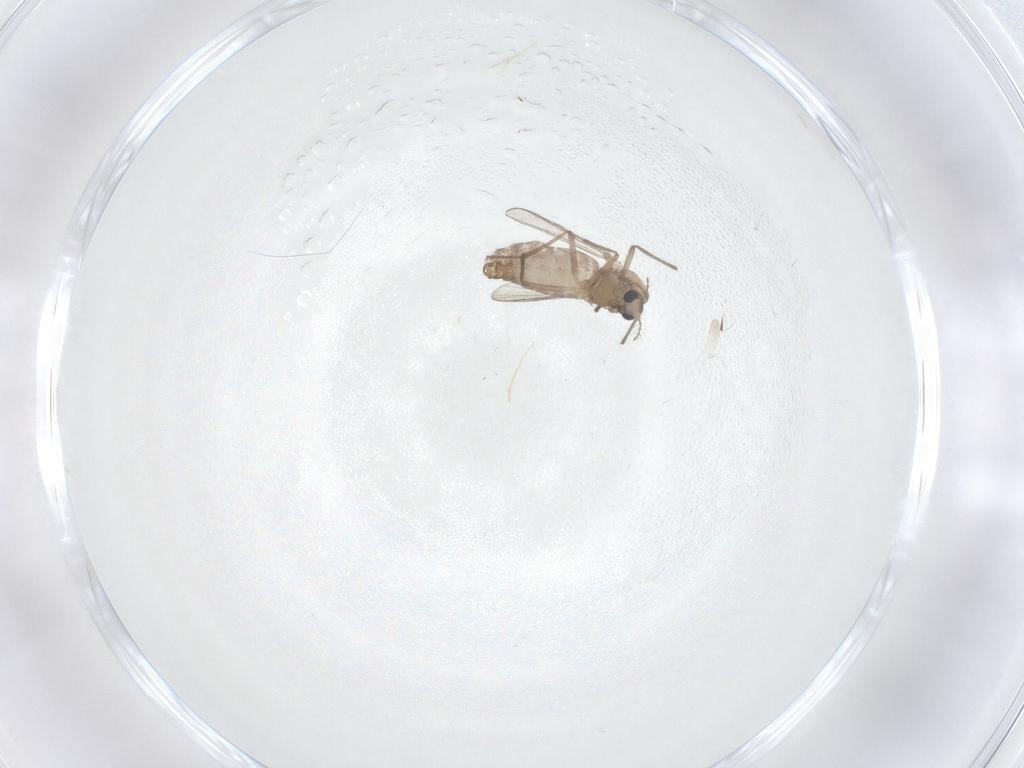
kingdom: Animalia
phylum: Arthropoda
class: Insecta
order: Diptera
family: Chironomidae
